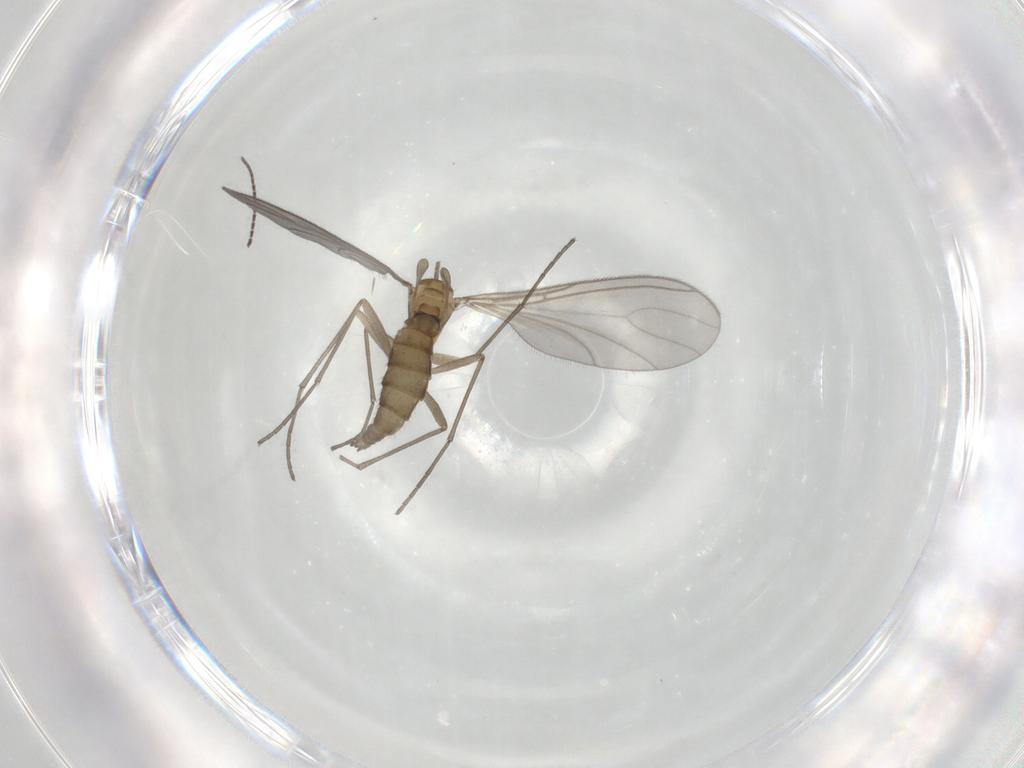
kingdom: Animalia
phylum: Arthropoda
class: Insecta
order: Diptera
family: Sciaridae
